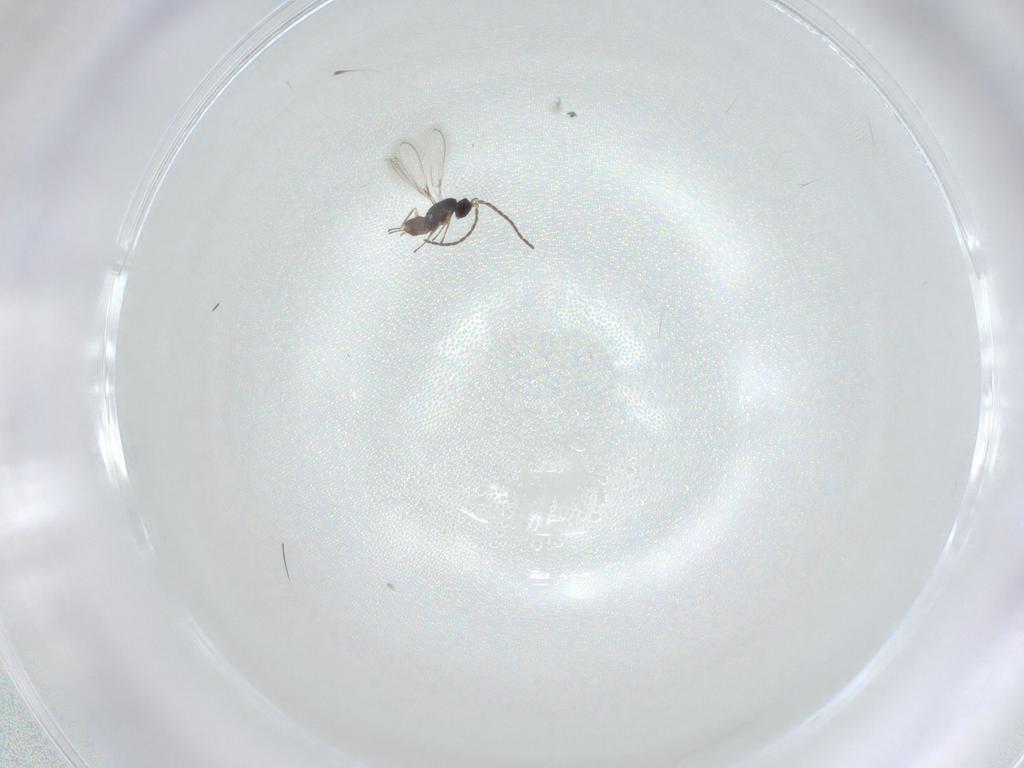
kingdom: Animalia
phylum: Arthropoda
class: Insecta
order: Hymenoptera
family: Mymaridae
